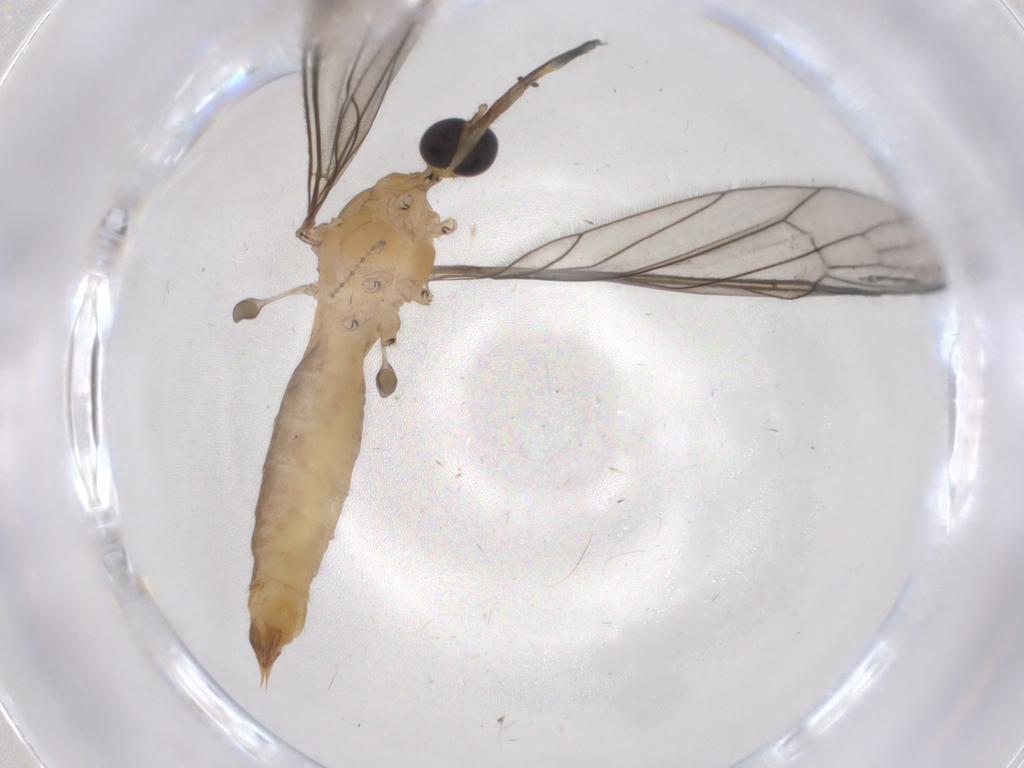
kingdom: Animalia
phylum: Arthropoda
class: Insecta
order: Diptera
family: Sphaeroceridae
